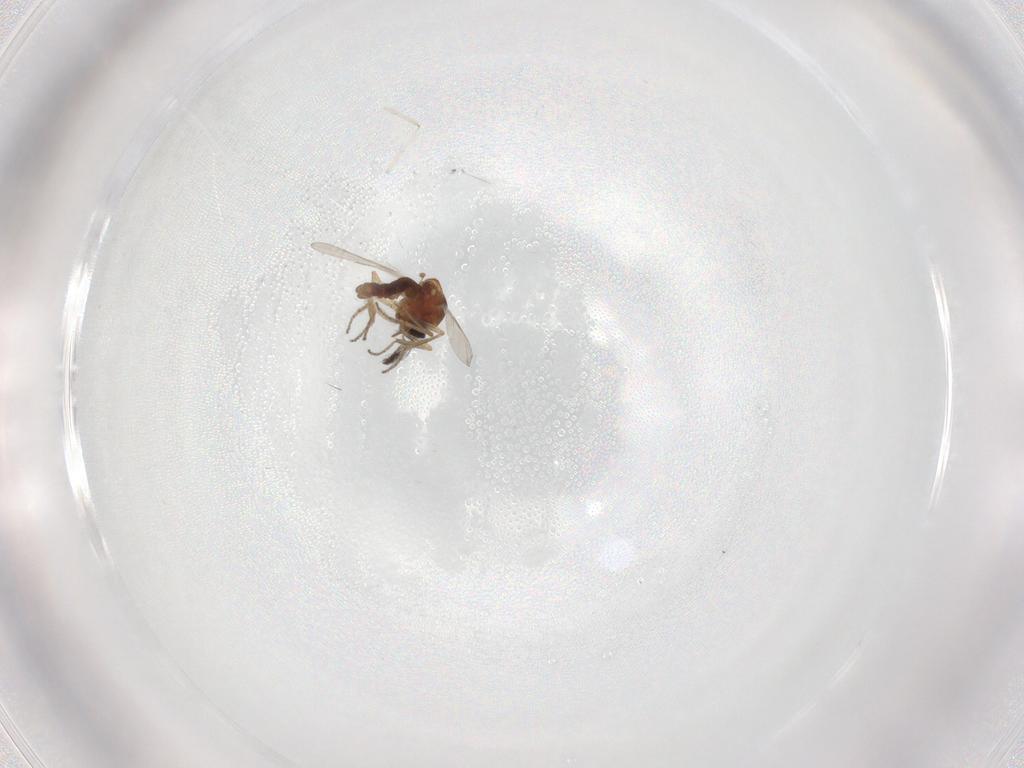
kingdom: Animalia
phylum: Arthropoda
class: Insecta
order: Diptera
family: Ceratopogonidae
